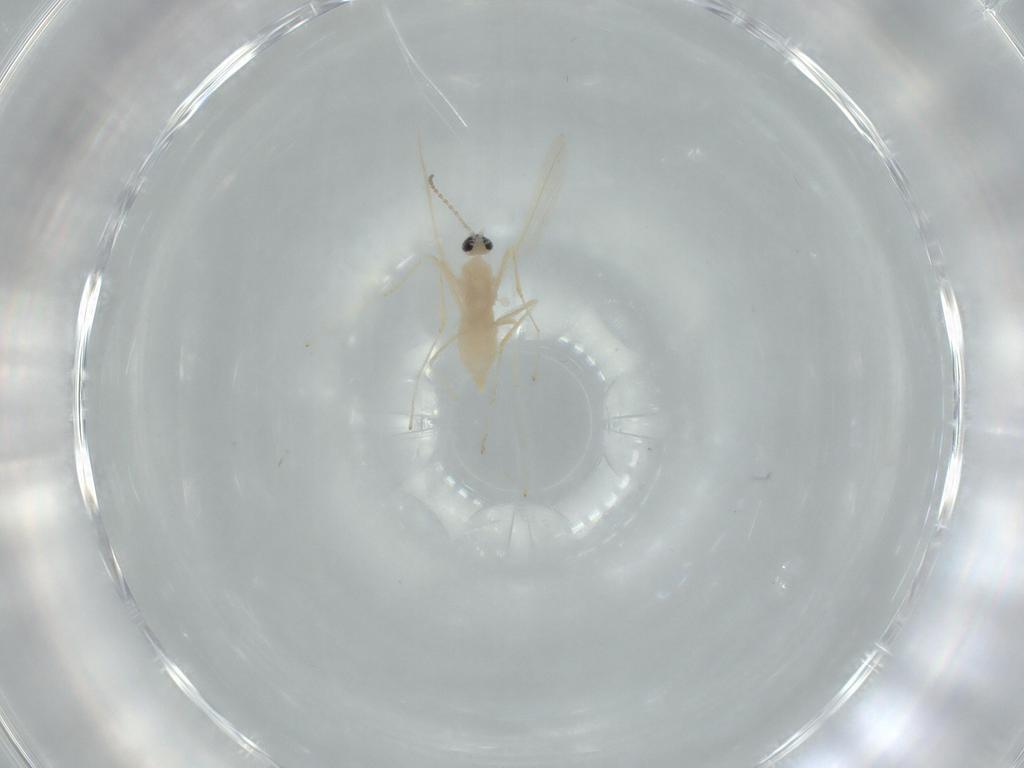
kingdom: Animalia
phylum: Arthropoda
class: Insecta
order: Diptera
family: Cecidomyiidae
